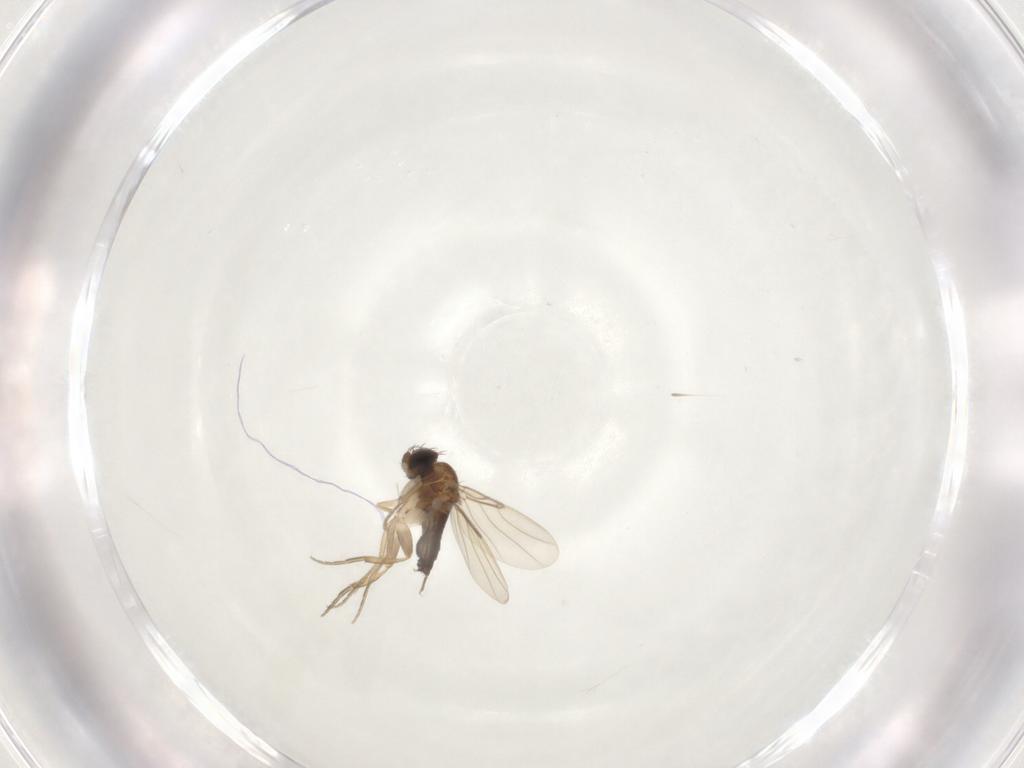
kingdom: Animalia
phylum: Arthropoda
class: Insecta
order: Diptera
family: Phoridae
